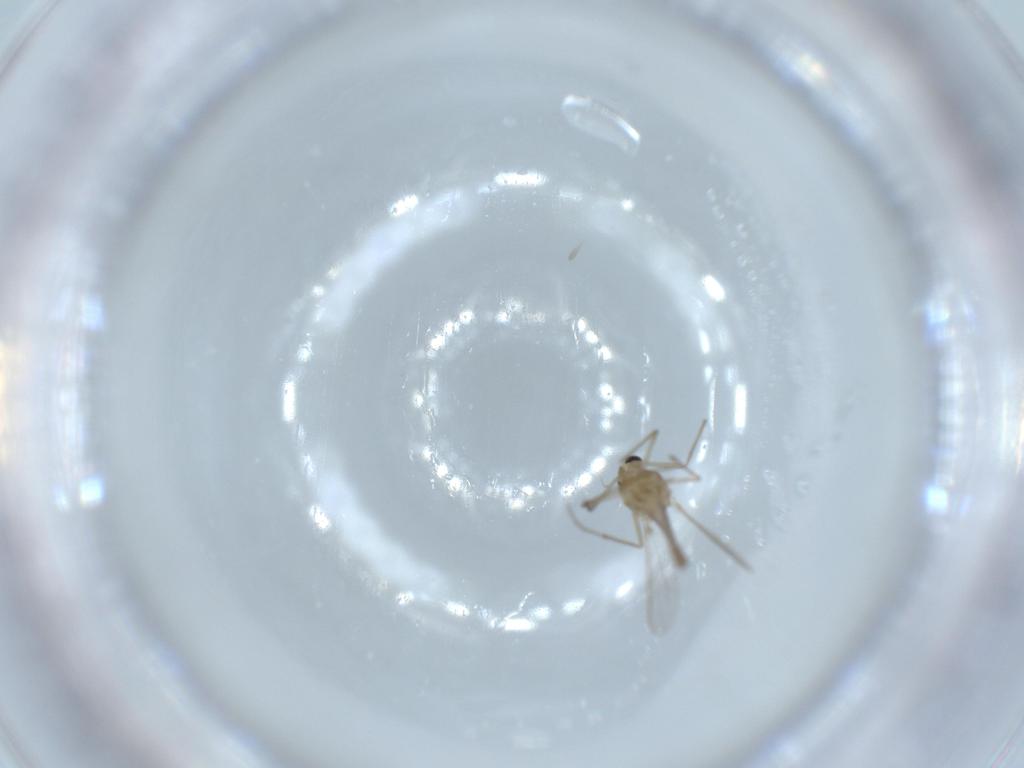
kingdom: Animalia
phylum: Arthropoda
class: Insecta
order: Diptera
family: Chironomidae
